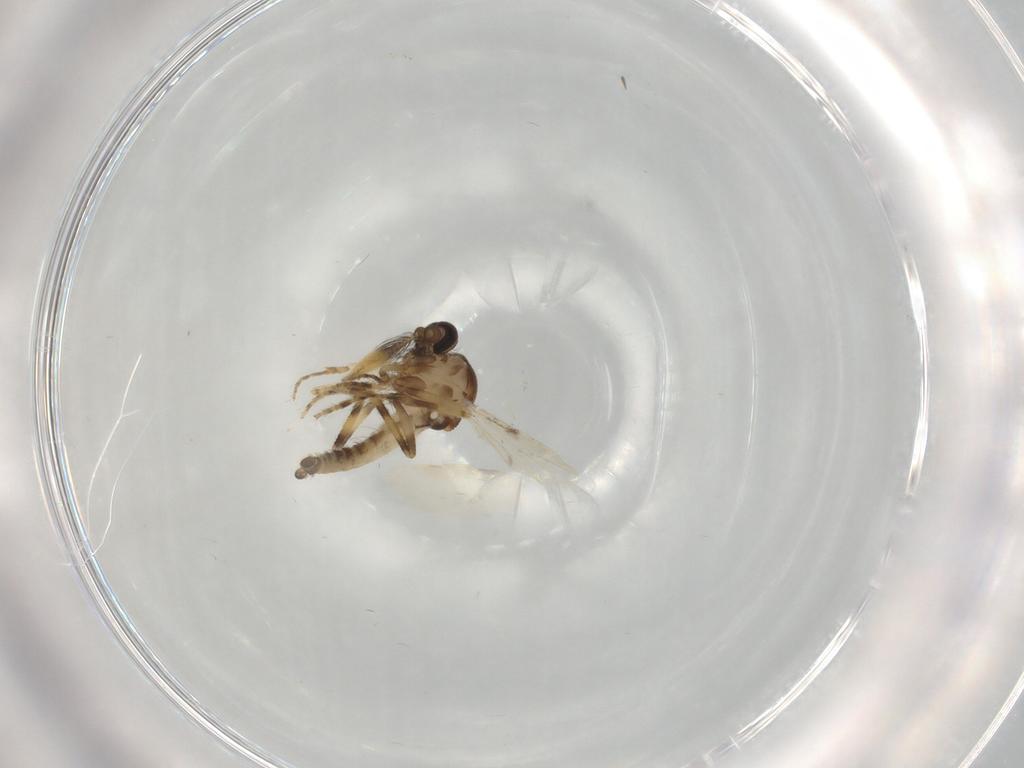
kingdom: Animalia
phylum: Arthropoda
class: Insecta
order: Diptera
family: Ceratopogonidae
